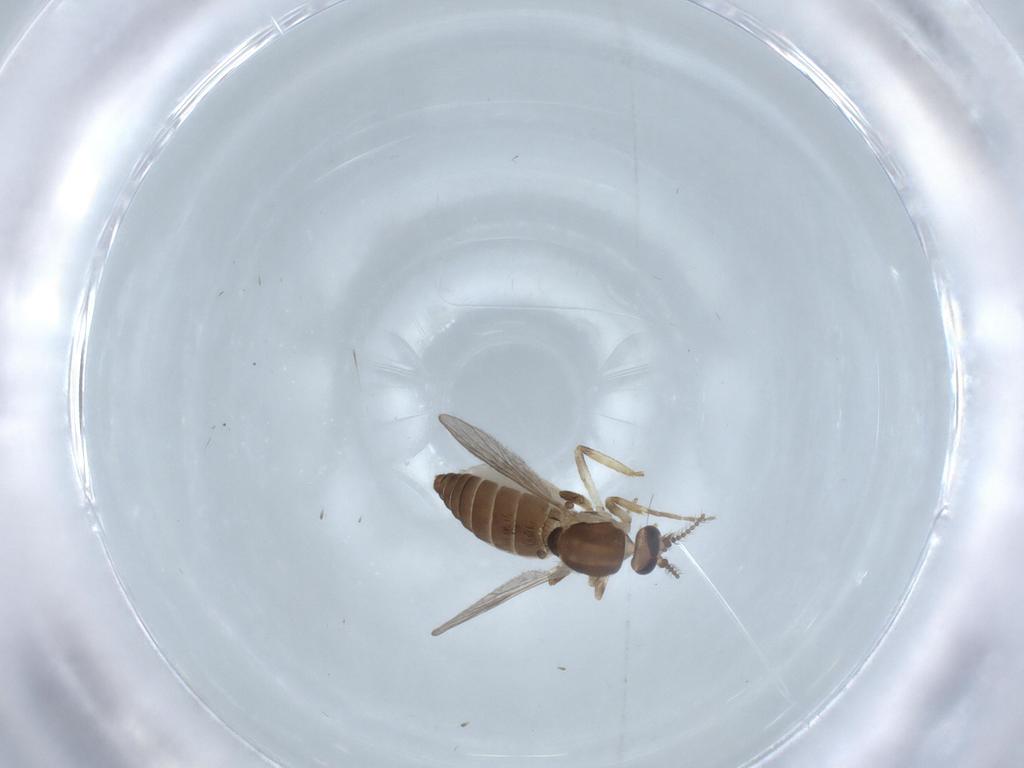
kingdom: Animalia
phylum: Arthropoda
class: Insecta
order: Diptera
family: Ceratopogonidae
